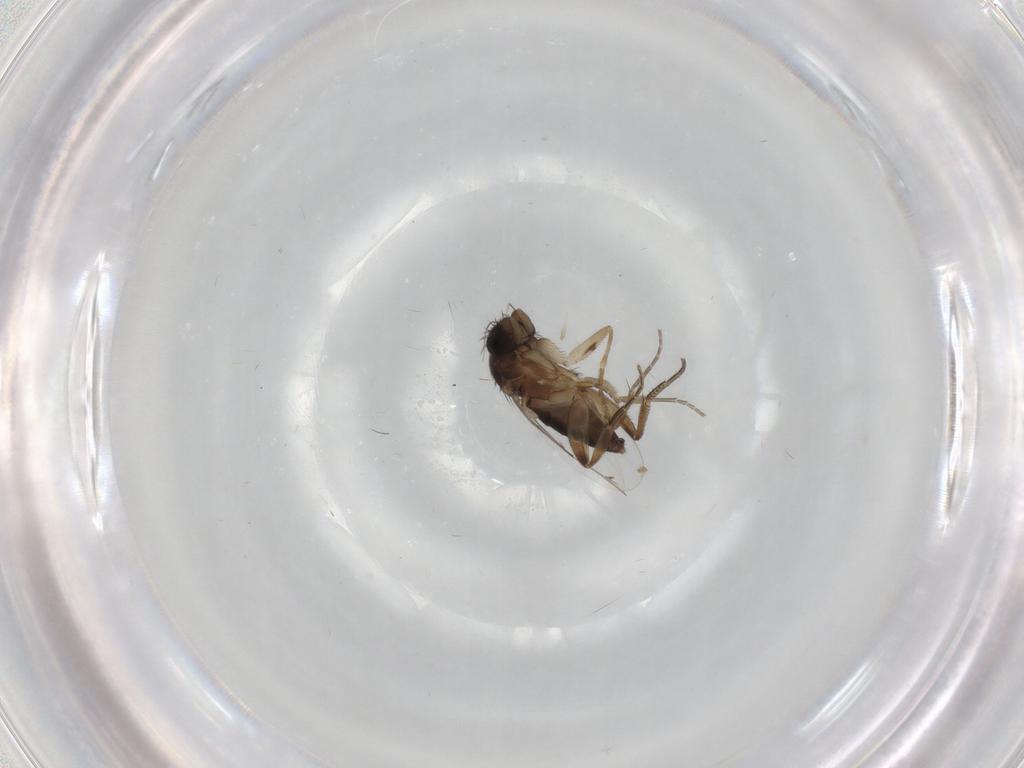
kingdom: Animalia
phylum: Arthropoda
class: Insecta
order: Diptera
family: Phoridae
